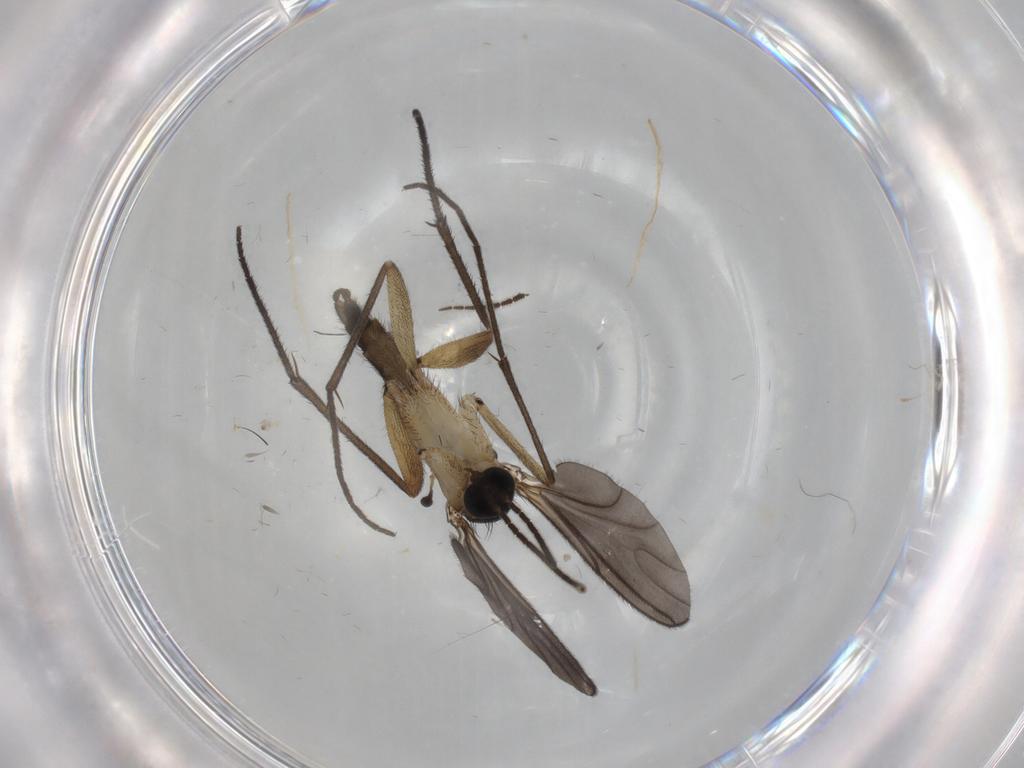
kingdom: Animalia
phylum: Arthropoda
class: Insecta
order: Diptera
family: Sciaridae
